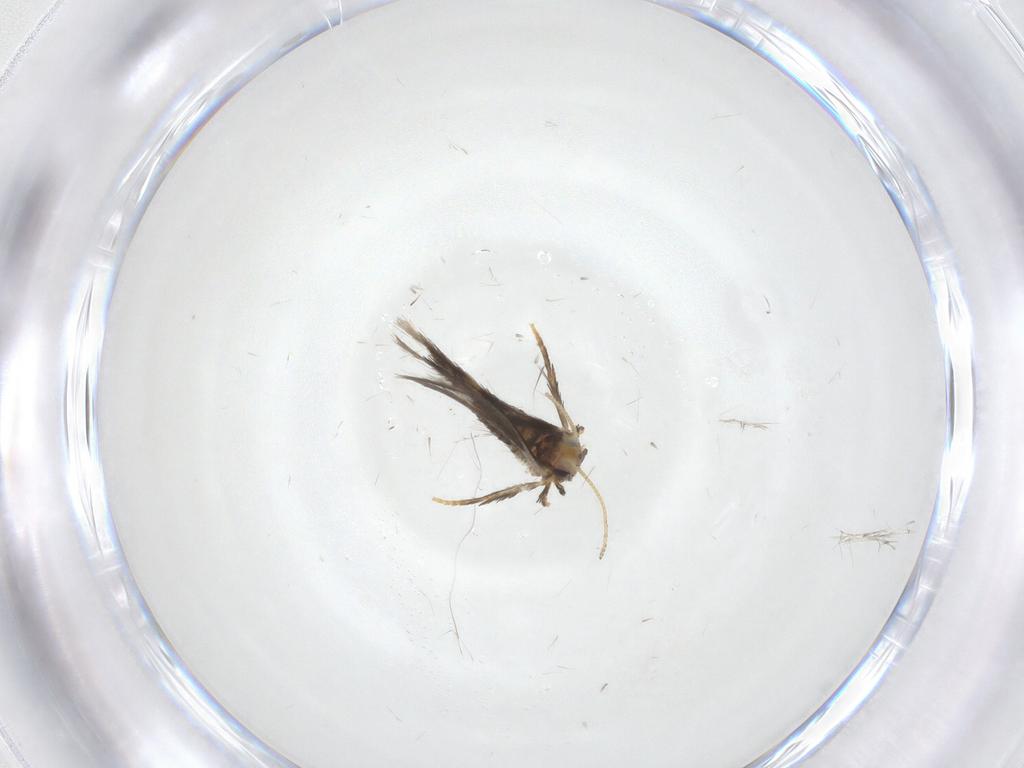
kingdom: Animalia
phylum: Arthropoda
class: Insecta
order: Lepidoptera
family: Nepticulidae
